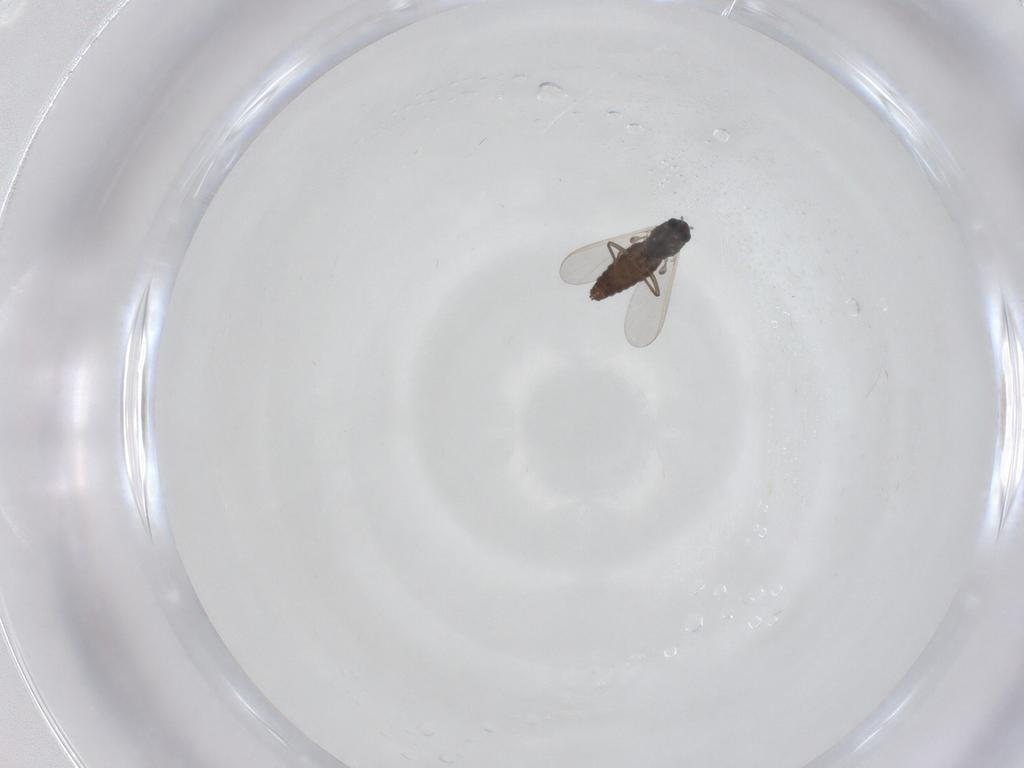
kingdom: Animalia
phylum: Arthropoda
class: Insecta
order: Diptera
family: Chironomidae
